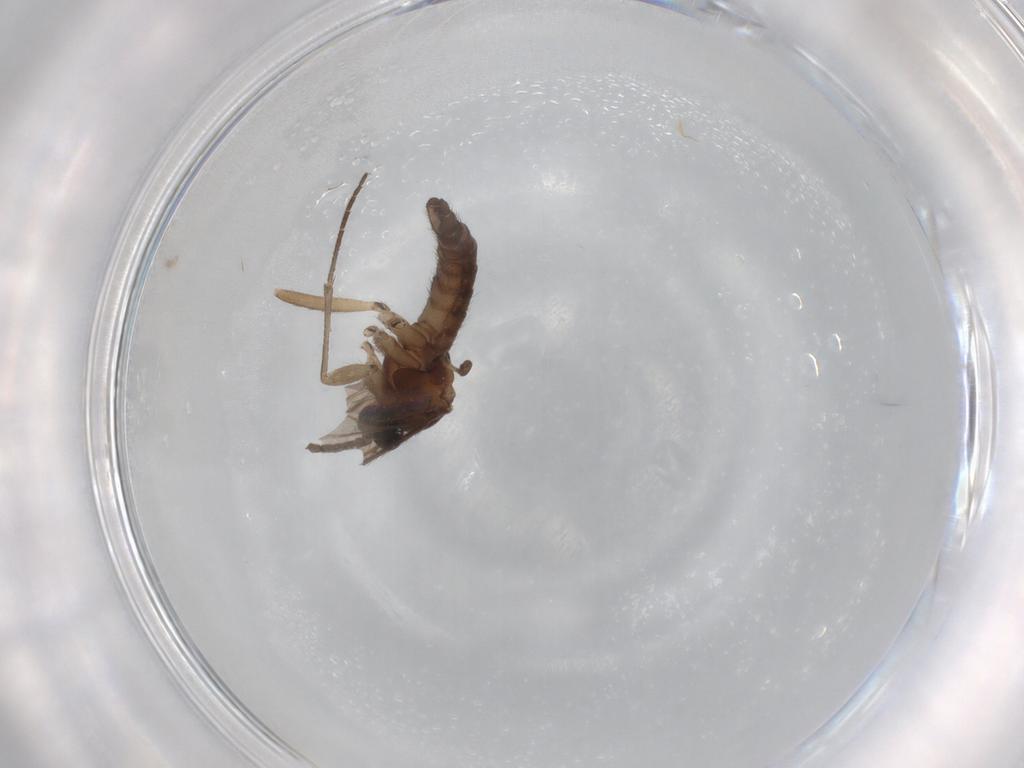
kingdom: Animalia
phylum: Arthropoda
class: Insecta
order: Diptera
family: Sciaridae
